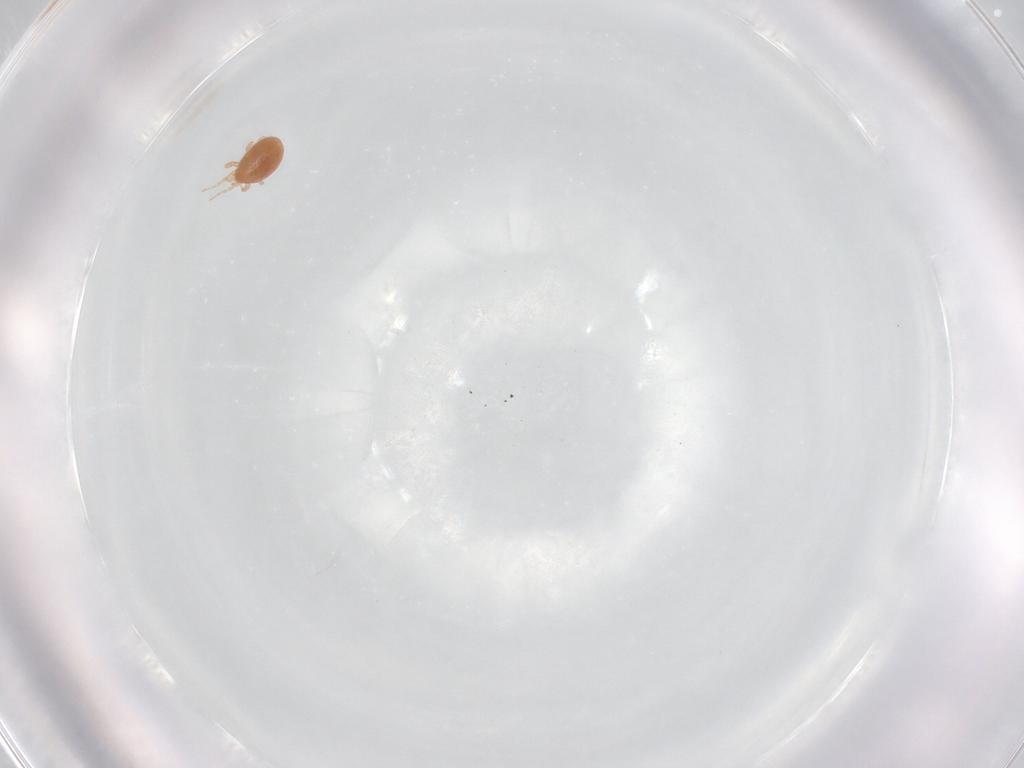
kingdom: Animalia
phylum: Arthropoda
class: Arachnida
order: Mesostigmata
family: Pachylaelapidae
